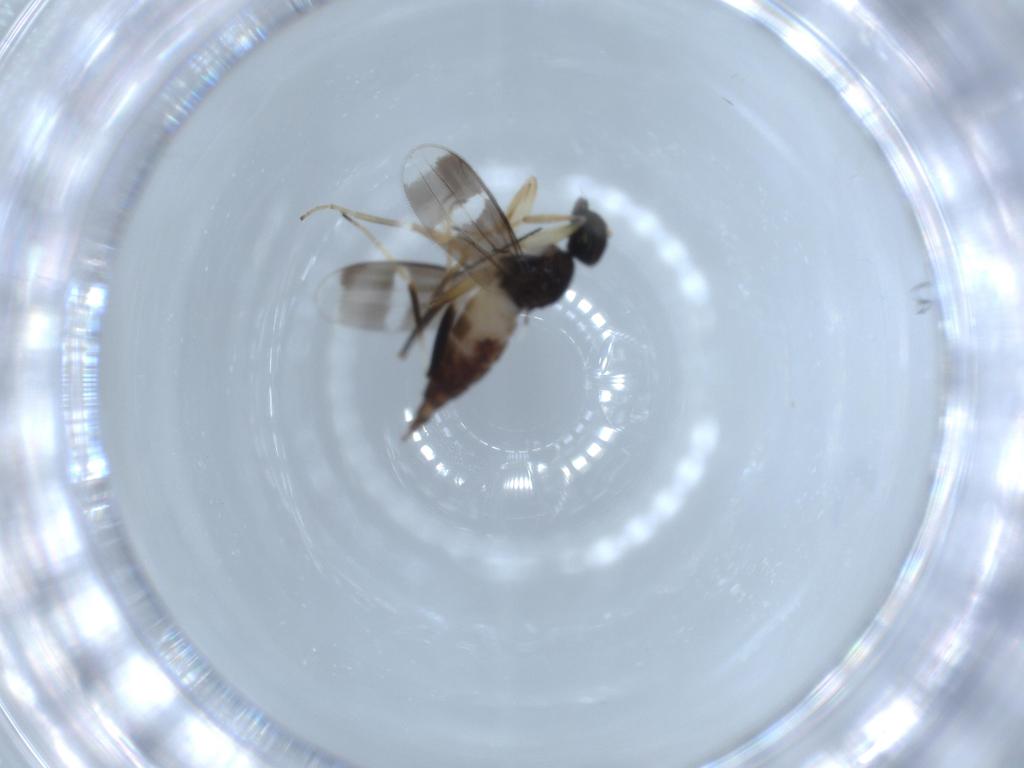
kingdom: Animalia
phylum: Arthropoda
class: Insecta
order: Diptera
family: Hybotidae
